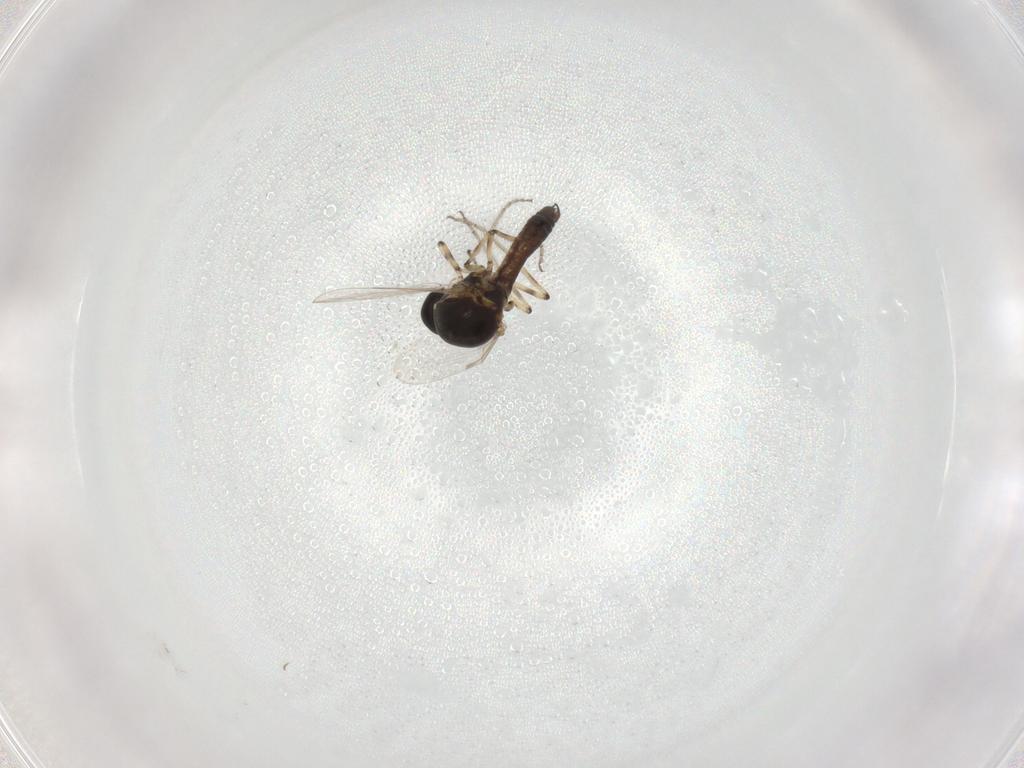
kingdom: Animalia
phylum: Arthropoda
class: Insecta
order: Diptera
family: Ceratopogonidae
